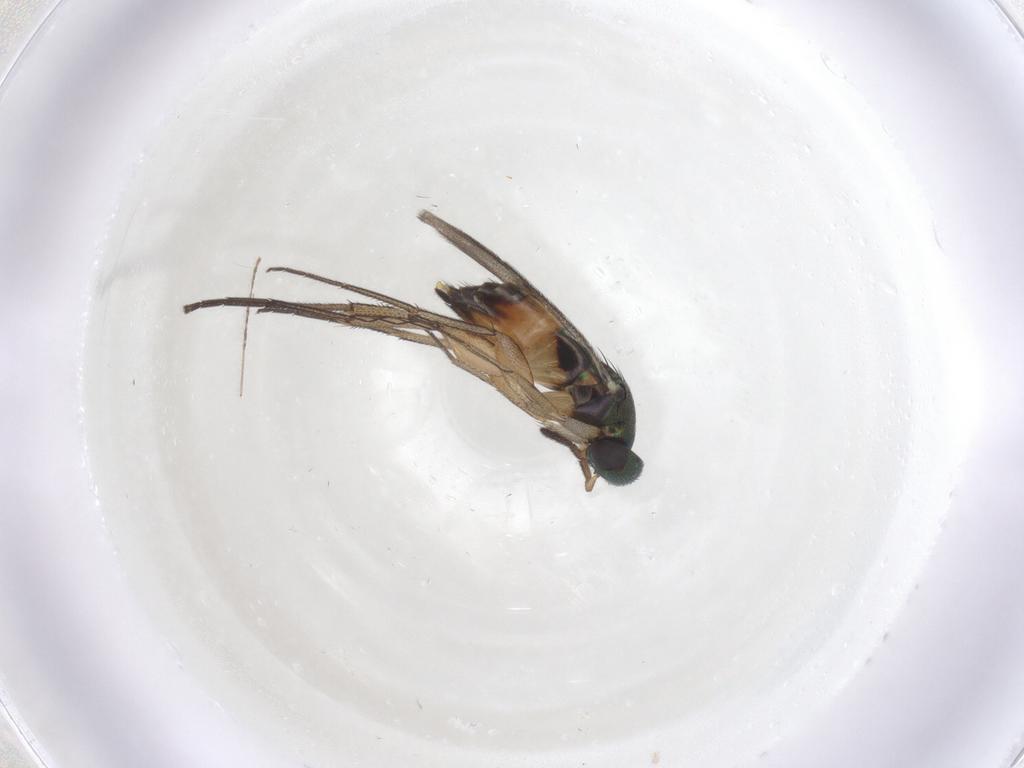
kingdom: Animalia
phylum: Arthropoda
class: Insecta
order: Hymenoptera
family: Eulophidae
